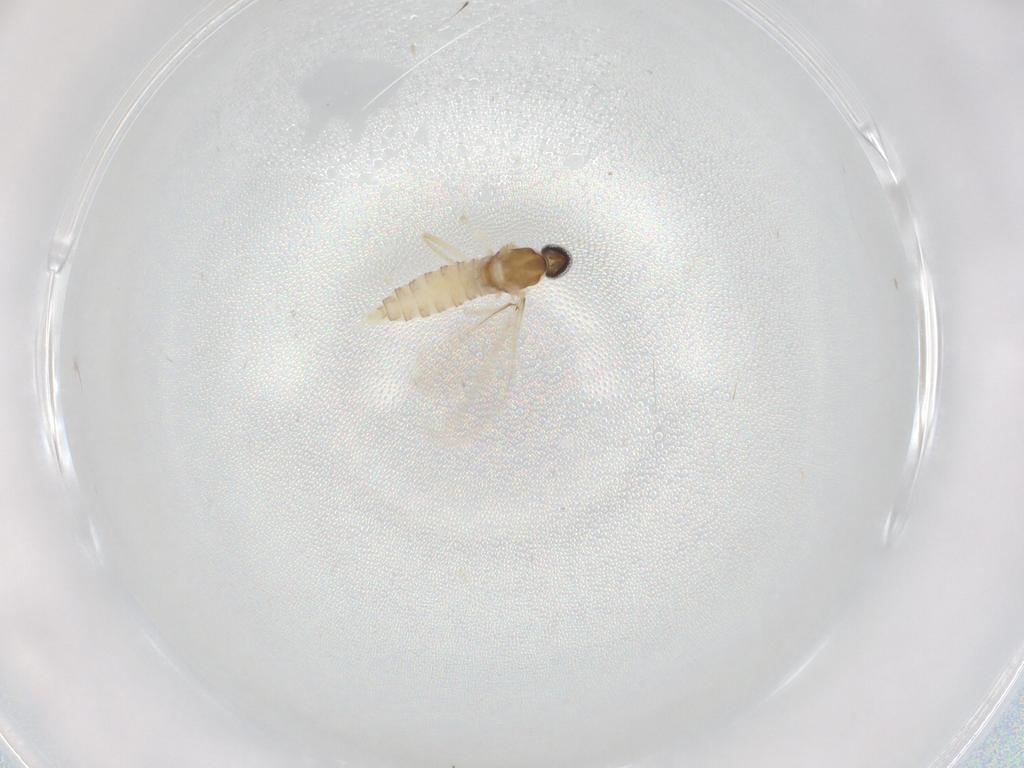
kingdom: Animalia
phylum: Arthropoda
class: Insecta
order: Diptera
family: Cecidomyiidae
